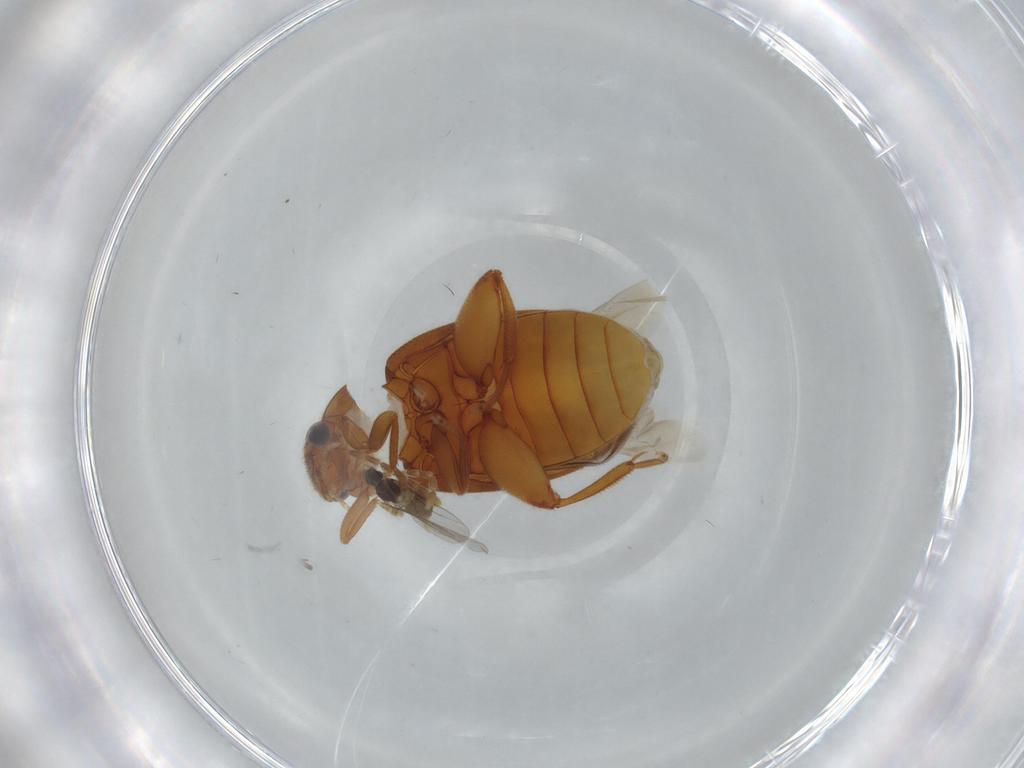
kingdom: Animalia
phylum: Arthropoda
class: Insecta
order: Coleoptera
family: Scirtidae
